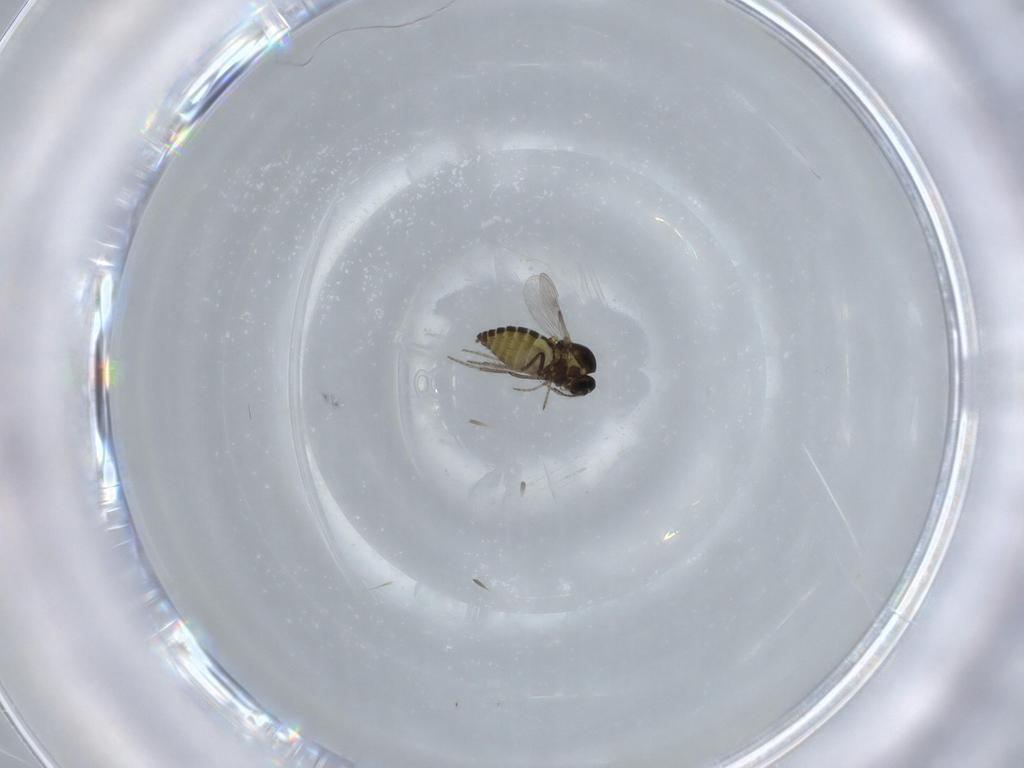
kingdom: Animalia
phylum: Arthropoda
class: Insecta
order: Diptera
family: Ceratopogonidae
